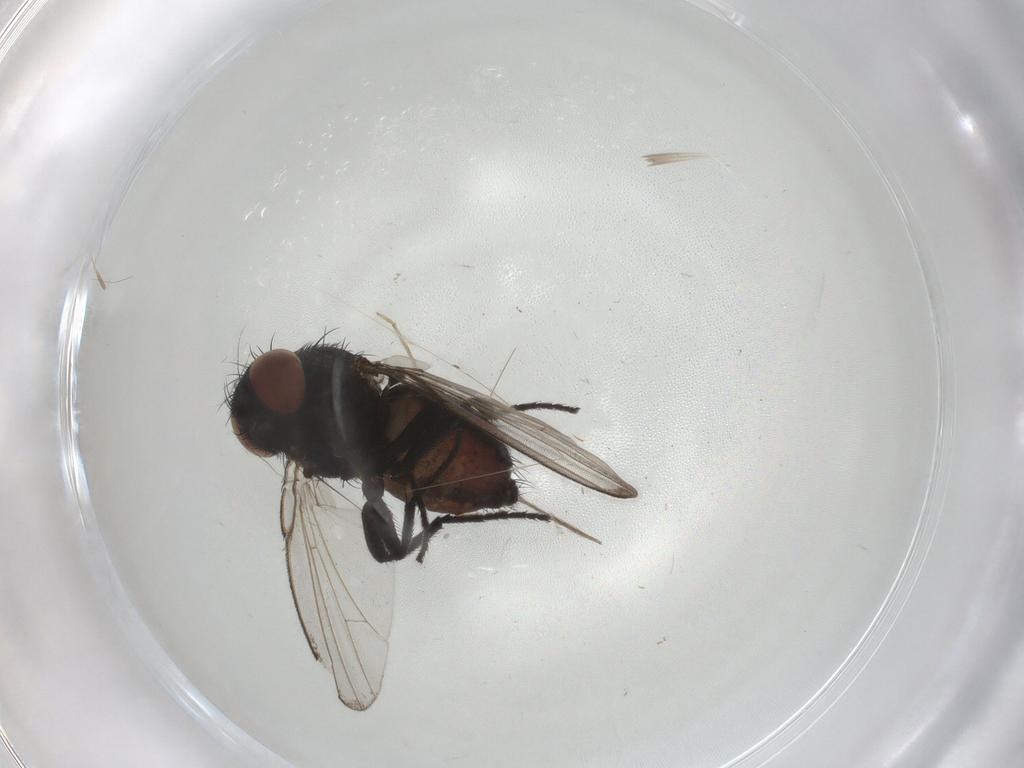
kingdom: Animalia
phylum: Arthropoda
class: Insecta
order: Diptera
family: Milichiidae
